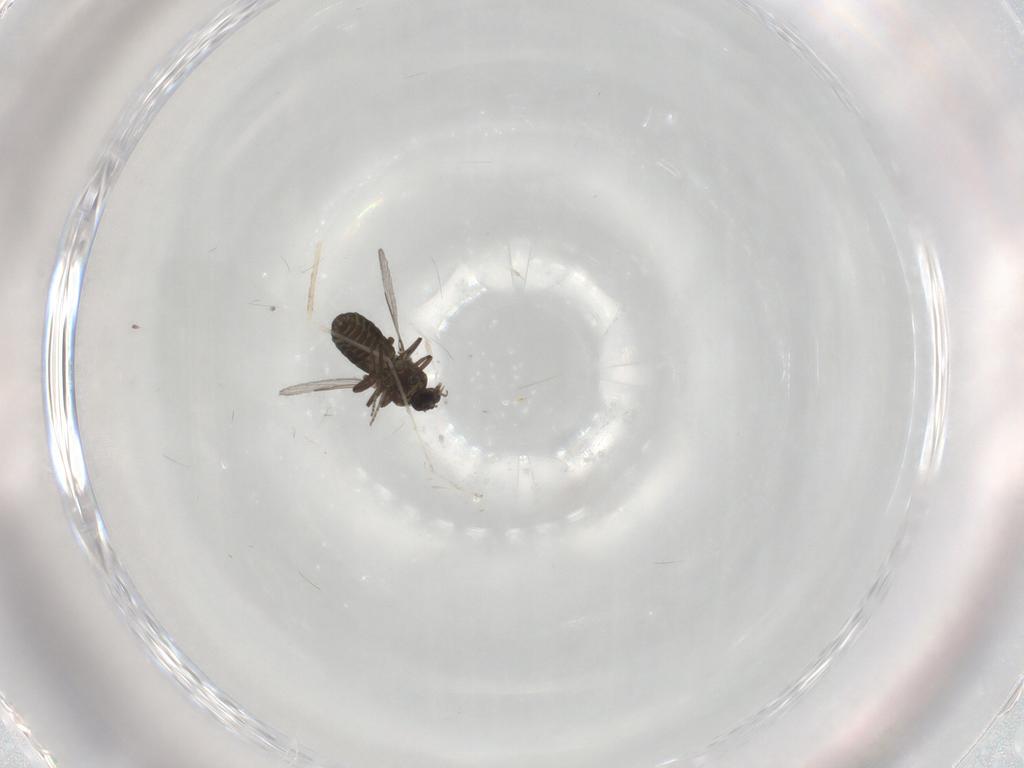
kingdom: Animalia
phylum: Arthropoda
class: Insecta
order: Diptera
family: Ceratopogonidae
